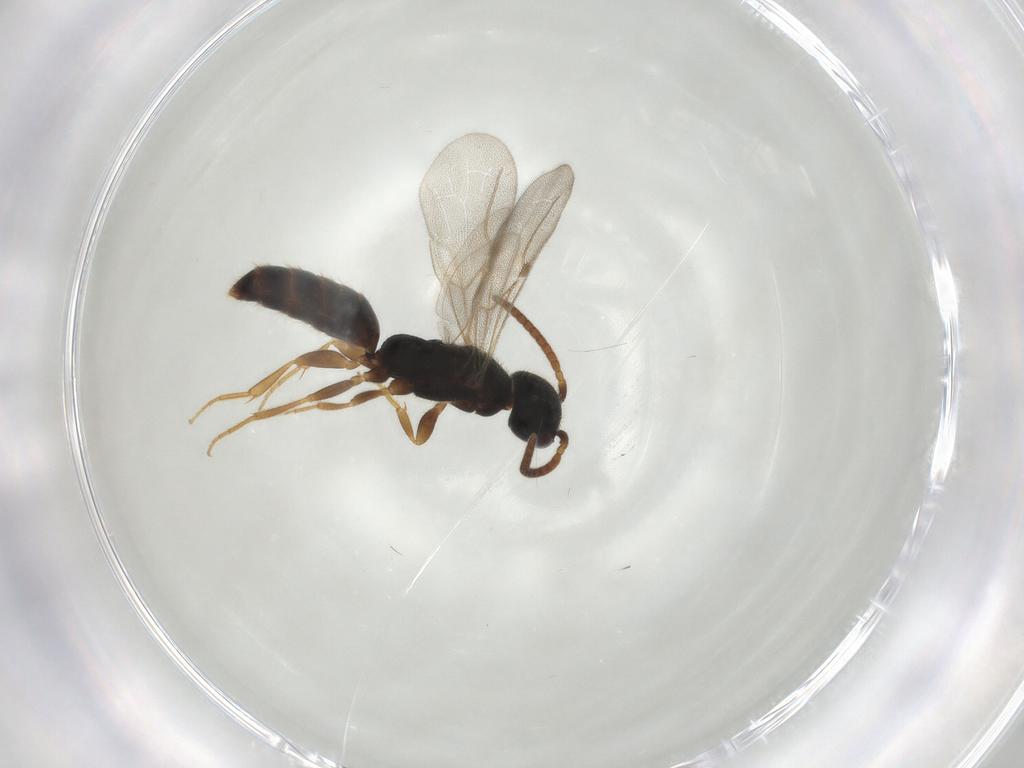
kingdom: Animalia
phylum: Arthropoda
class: Insecta
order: Hymenoptera
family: Bethylidae
